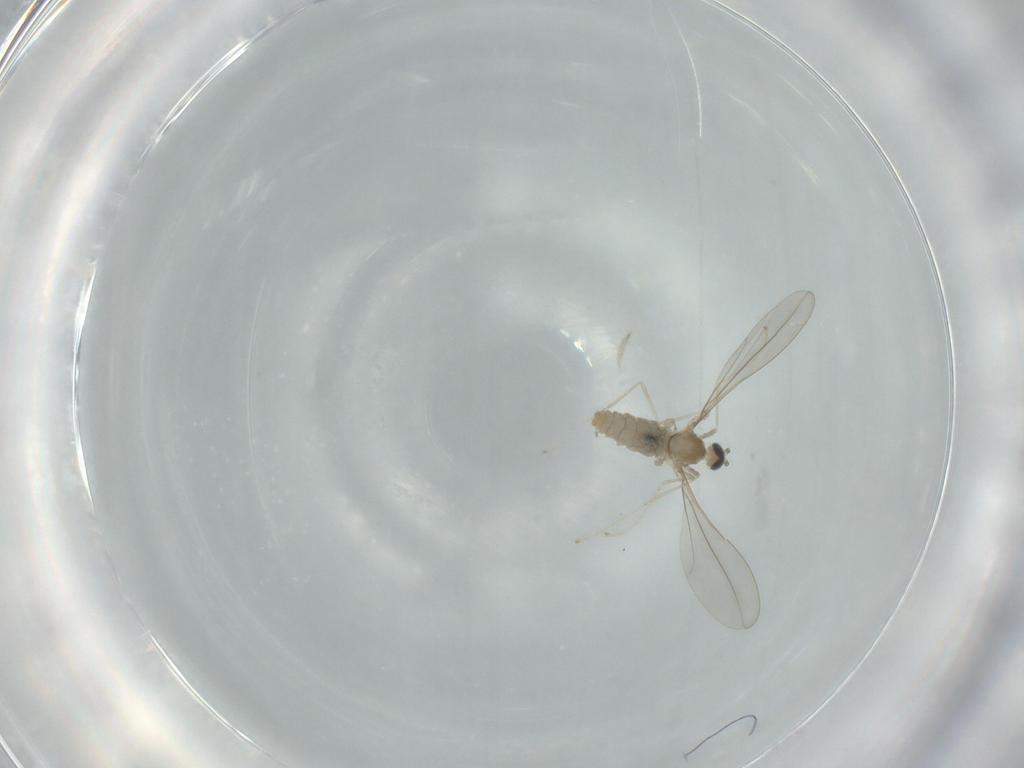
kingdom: Animalia
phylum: Arthropoda
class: Insecta
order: Diptera
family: Cecidomyiidae
